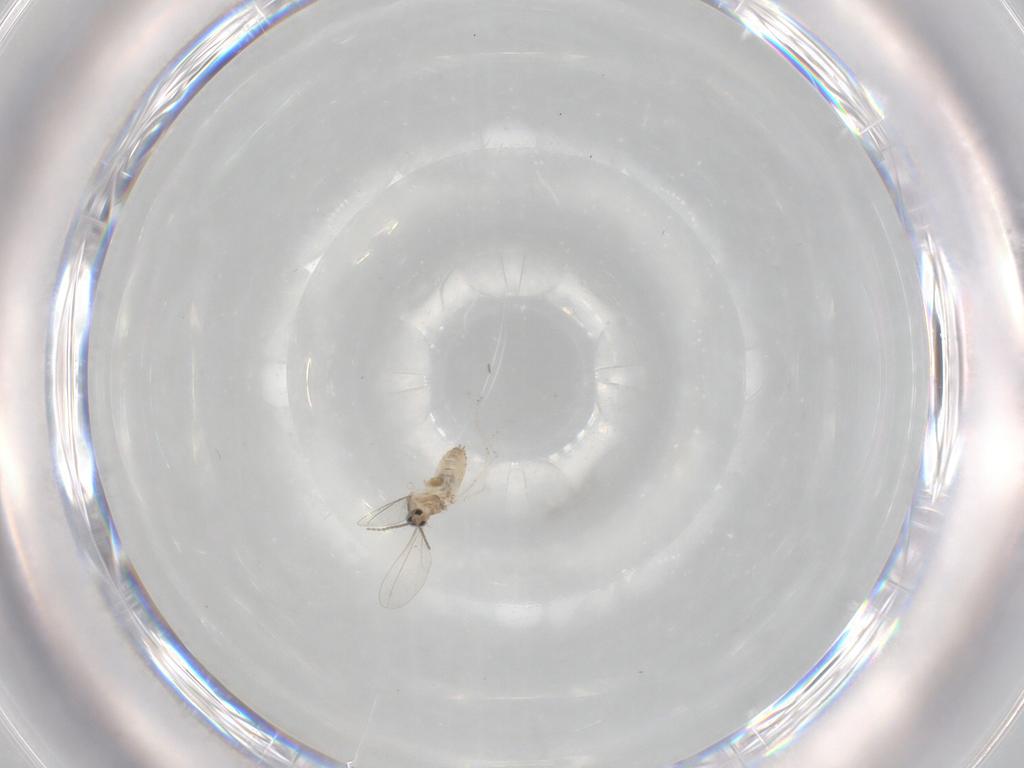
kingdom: Animalia
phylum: Arthropoda
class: Insecta
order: Diptera
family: Cecidomyiidae
